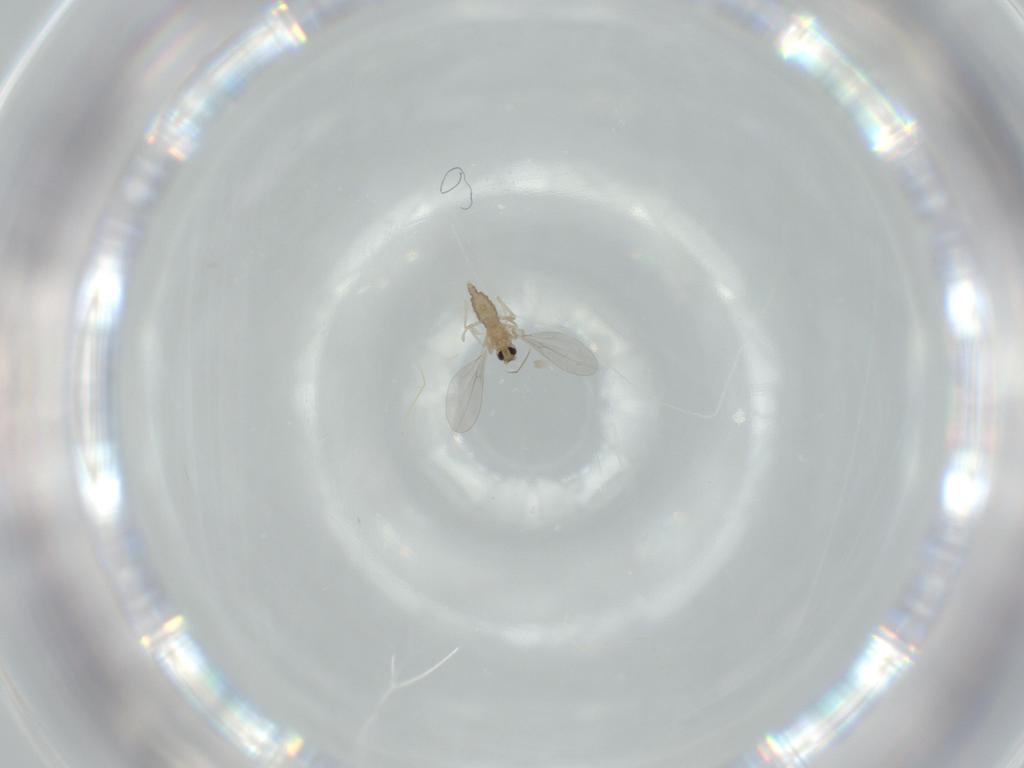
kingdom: Animalia
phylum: Arthropoda
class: Insecta
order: Diptera
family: Cecidomyiidae
